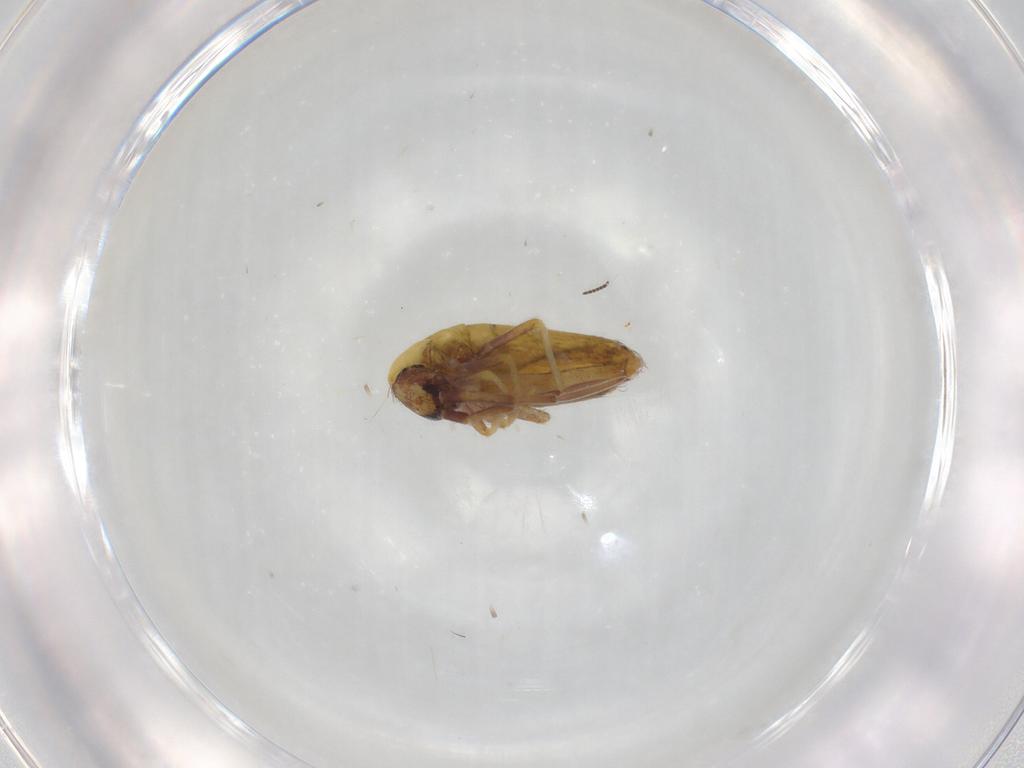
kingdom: Animalia
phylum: Arthropoda
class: Collembola
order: Entomobryomorpha
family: Entomobryidae
